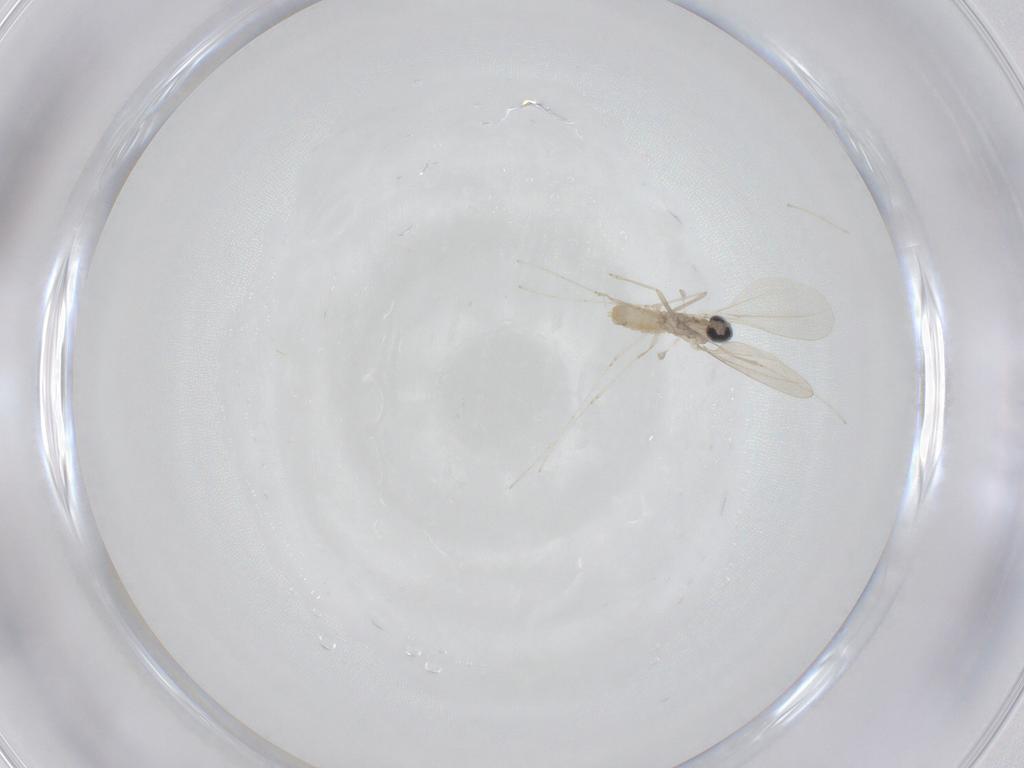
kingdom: Animalia
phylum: Arthropoda
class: Insecta
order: Diptera
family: Cecidomyiidae
